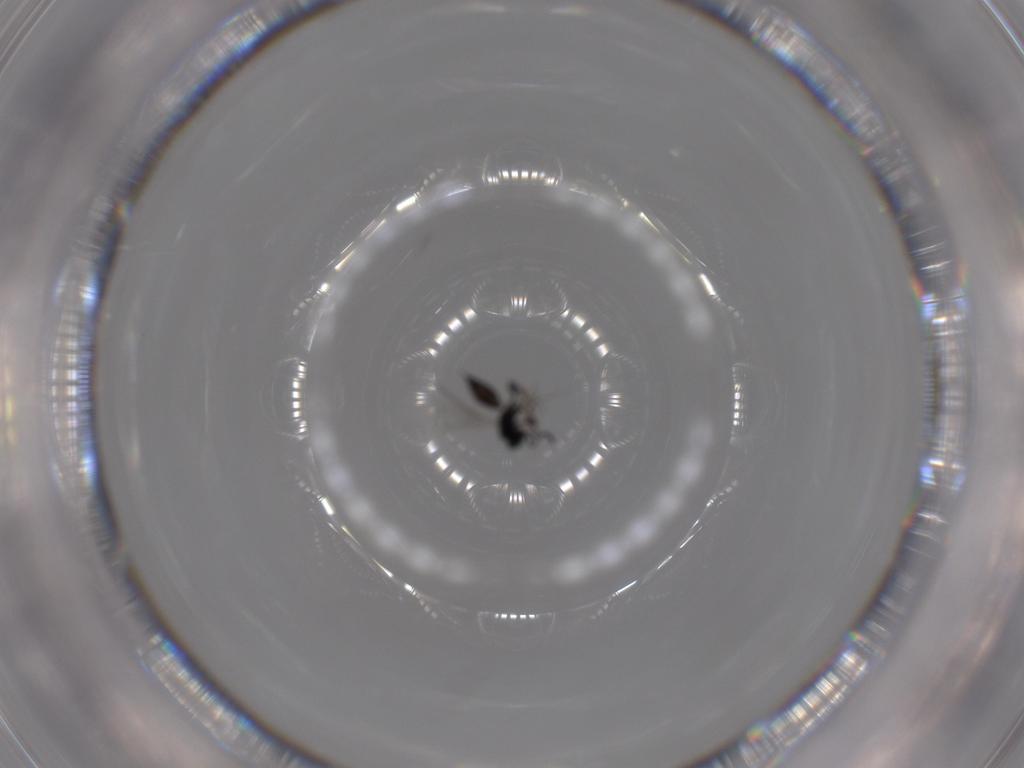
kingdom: Animalia
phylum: Arthropoda
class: Insecta
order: Hymenoptera
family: Scelionidae
